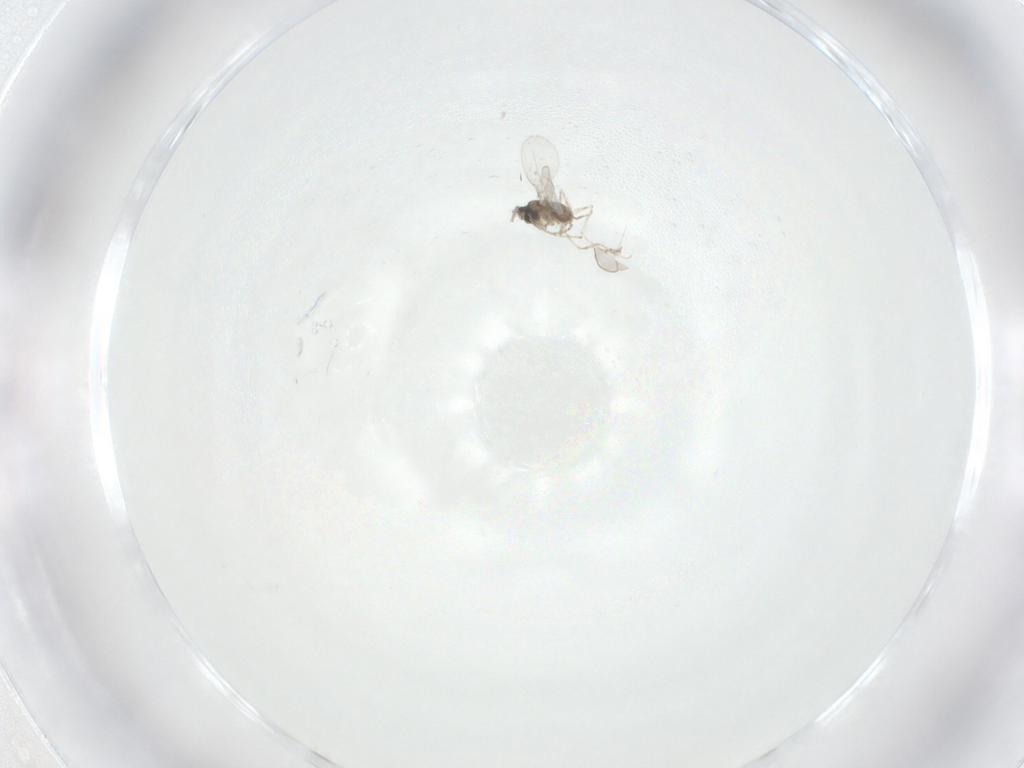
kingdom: Animalia
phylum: Arthropoda
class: Insecta
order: Diptera
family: Cecidomyiidae
